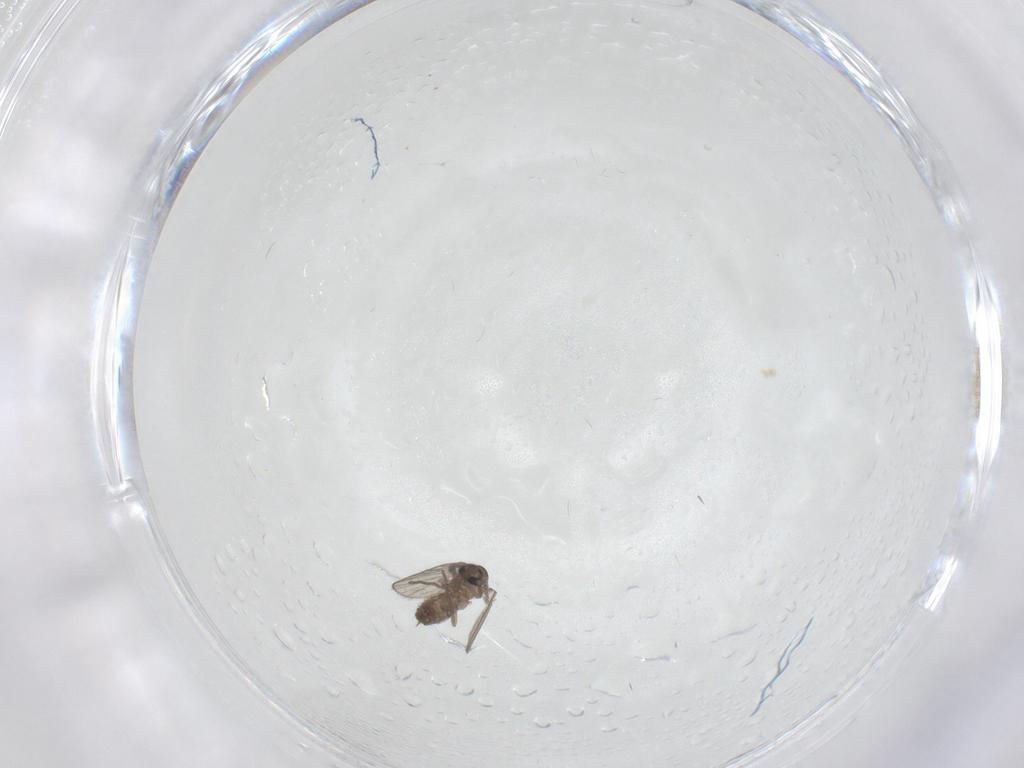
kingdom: Animalia
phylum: Arthropoda
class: Insecta
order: Diptera
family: Psychodidae
